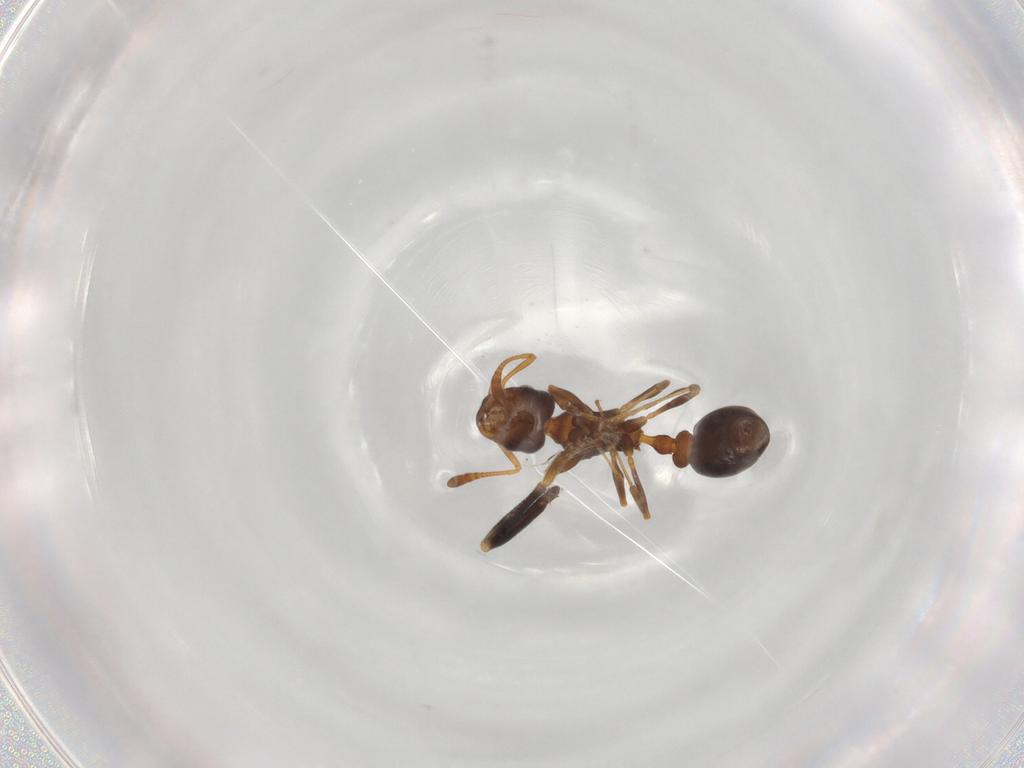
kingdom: Animalia
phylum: Arthropoda
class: Insecta
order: Hymenoptera
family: Formicidae
